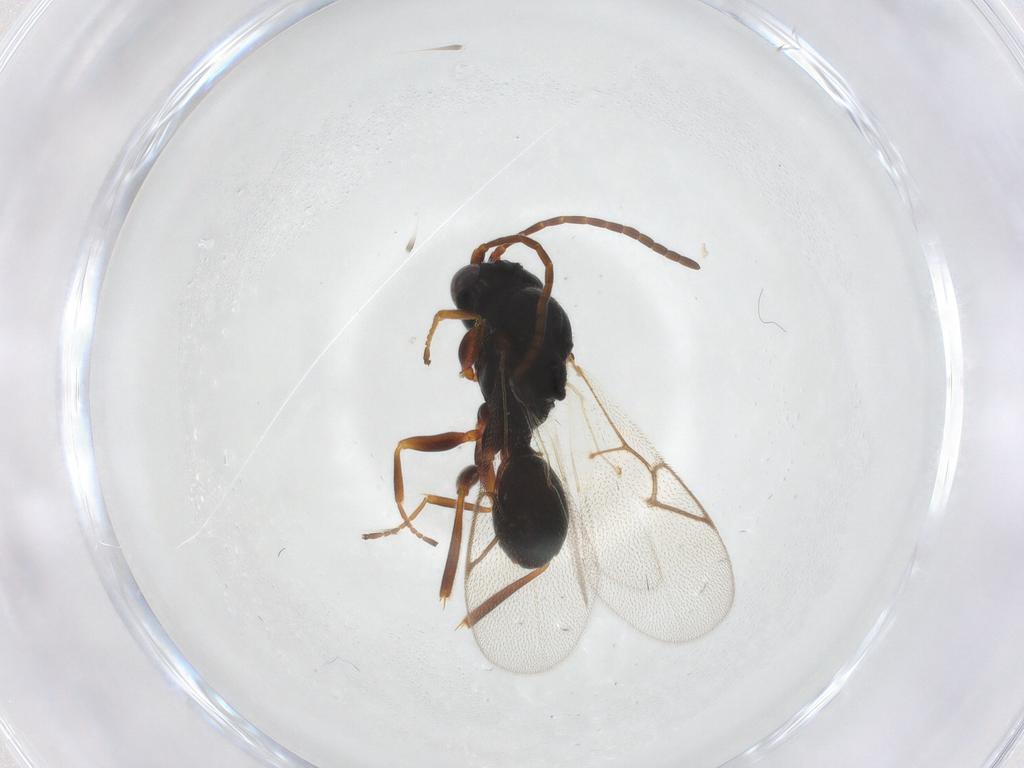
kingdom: Animalia
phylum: Arthropoda
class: Insecta
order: Hymenoptera
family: Figitidae
